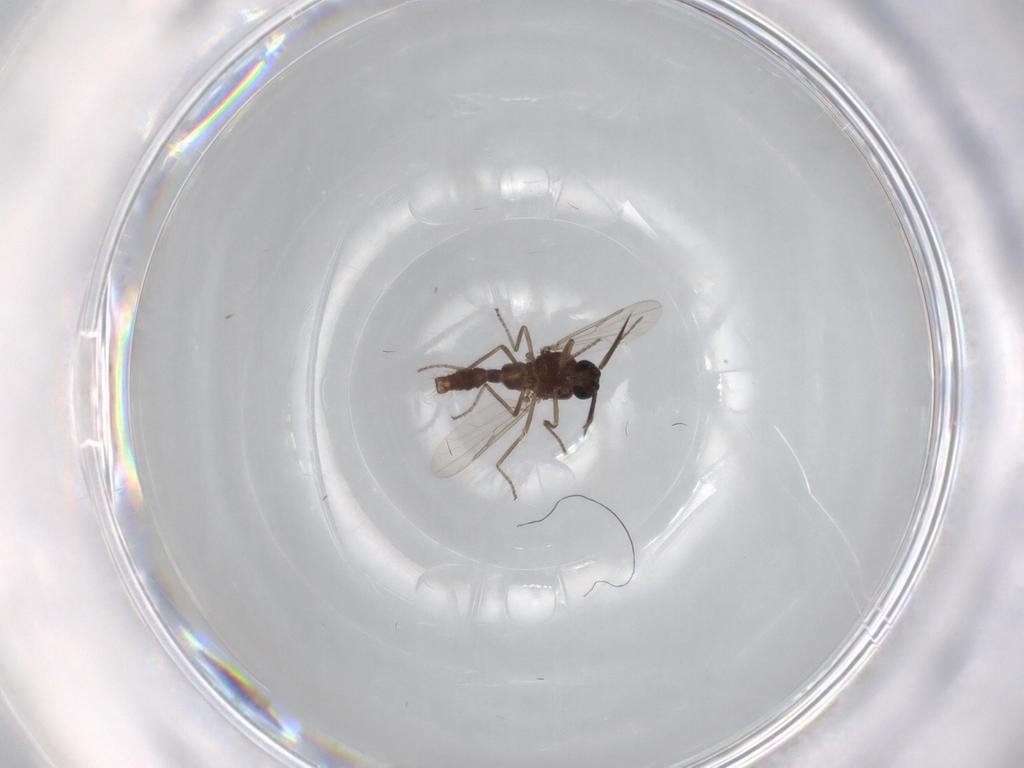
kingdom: Animalia
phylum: Arthropoda
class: Insecta
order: Diptera
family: Ceratopogonidae
